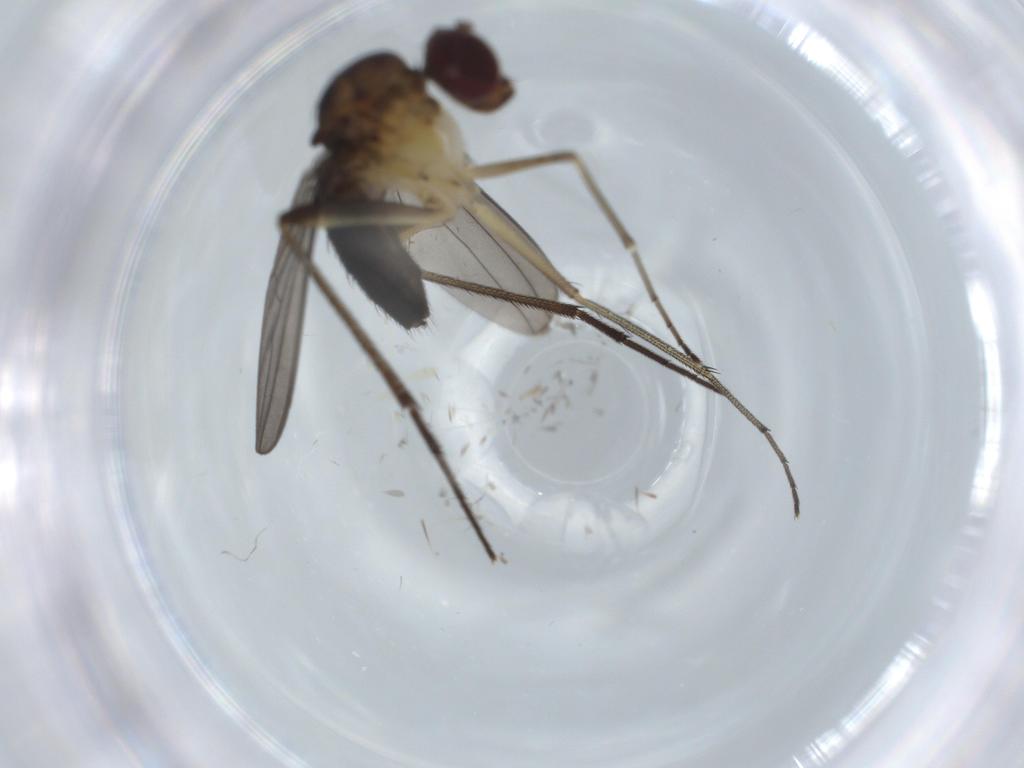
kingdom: Animalia
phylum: Arthropoda
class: Insecta
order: Diptera
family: Dolichopodidae
